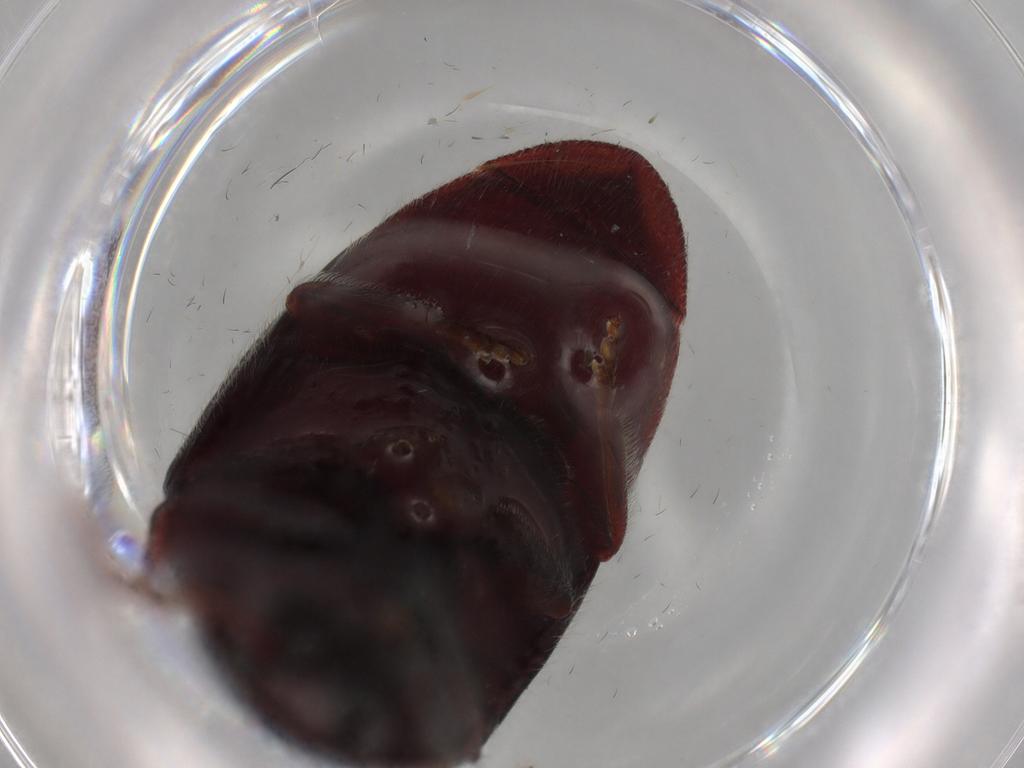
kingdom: Animalia
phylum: Arthropoda
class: Insecta
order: Coleoptera
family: Elateridae
